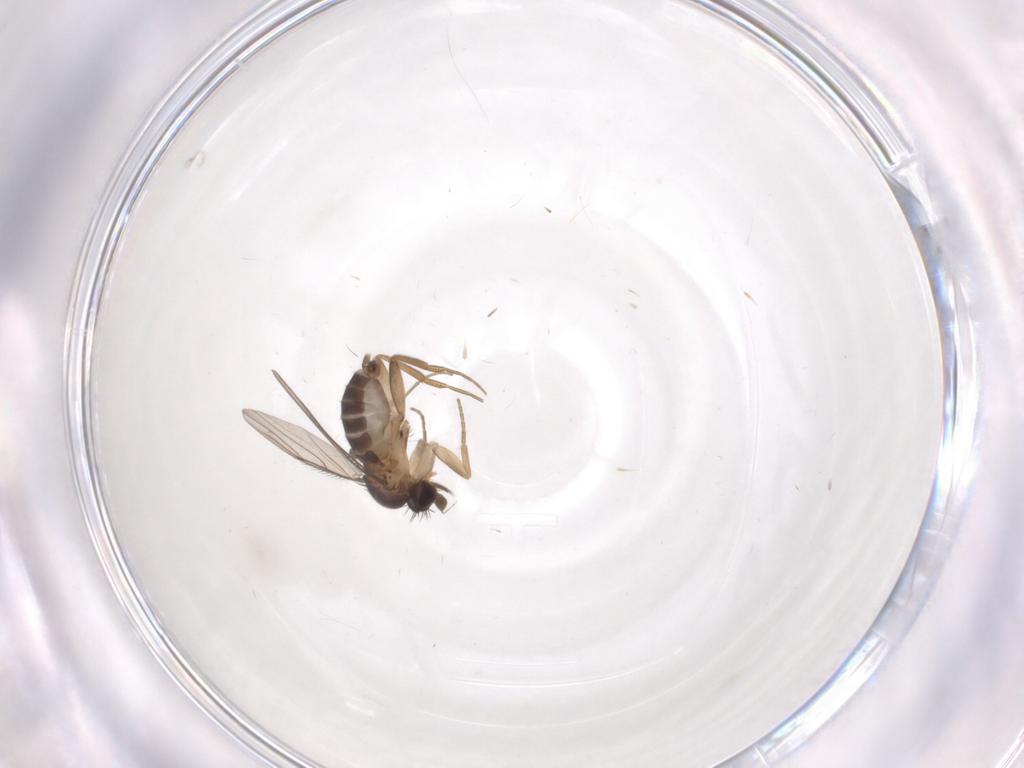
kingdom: Animalia
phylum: Arthropoda
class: Insecta
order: Diptera
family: Phoridae
